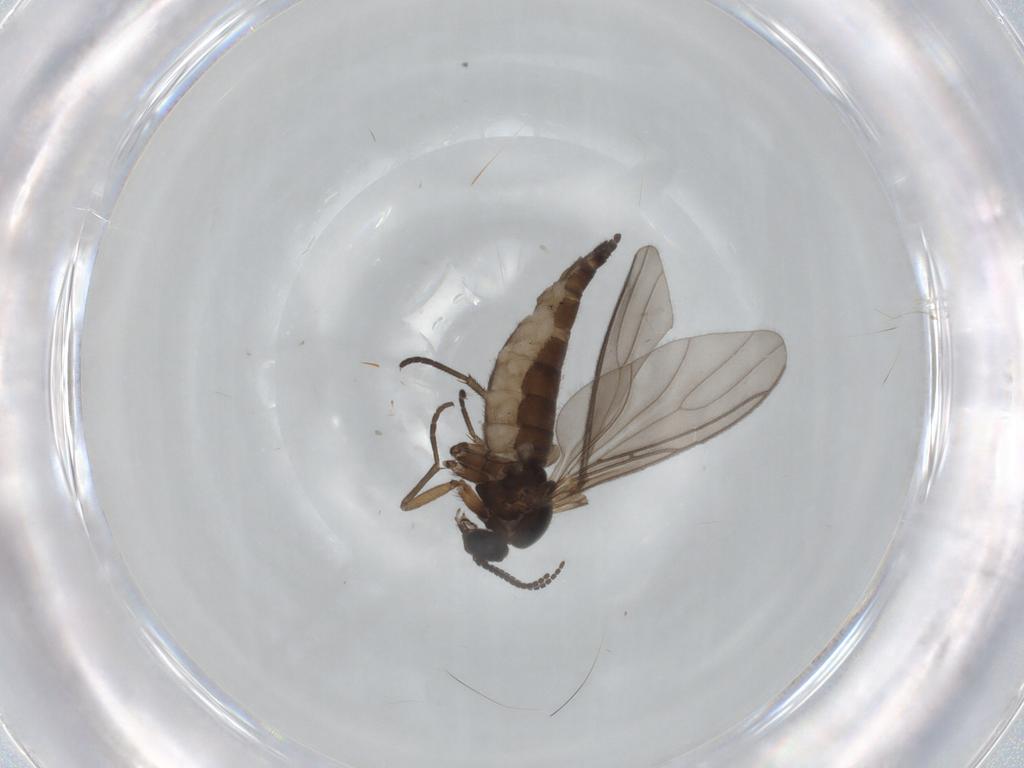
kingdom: Animalia
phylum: Arthropoda
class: Insecta
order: Diptera
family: Sciaridae
